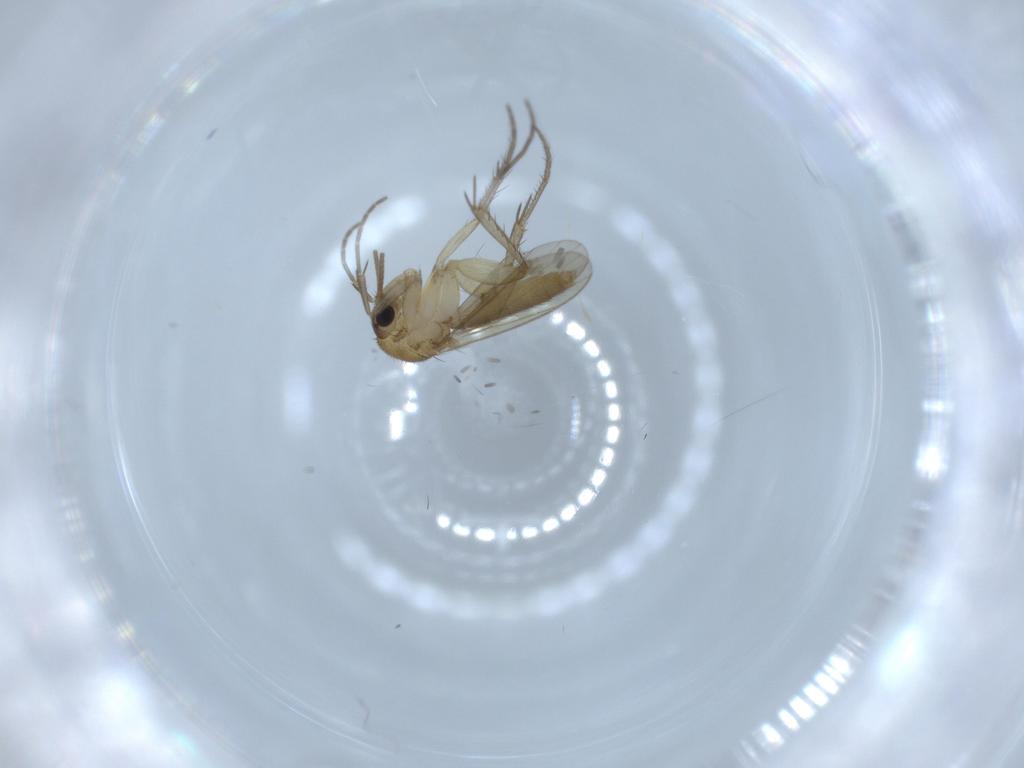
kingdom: Animalia
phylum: Arthropoda
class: Insecta
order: Diptera
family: Mycetophilidae
